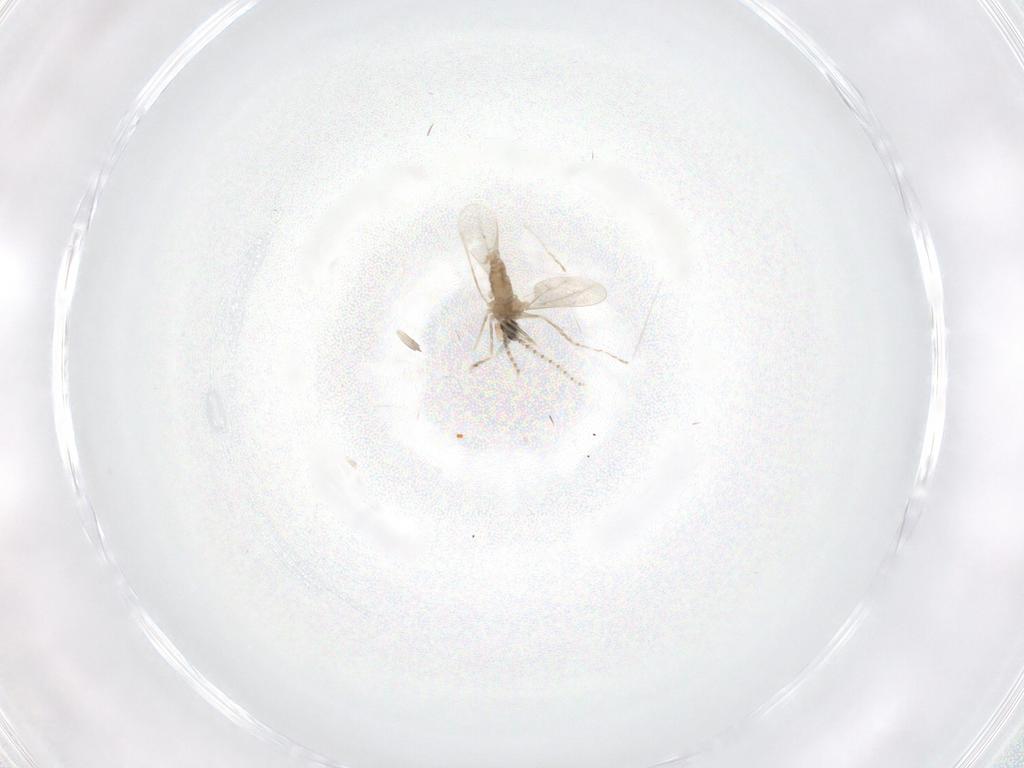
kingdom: Animalia
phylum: Arthropoda
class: Insecta
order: Diptera
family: Cecidomyiidae
